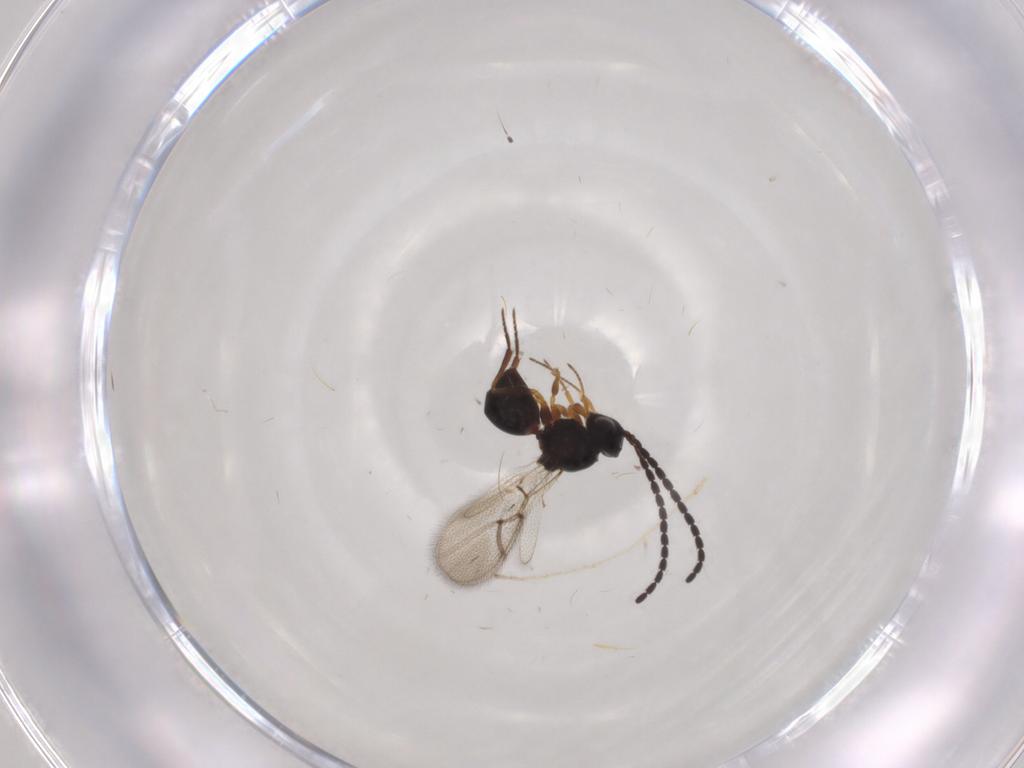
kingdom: Animalia
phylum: Arthropoda
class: Insecta
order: Hymenoptera
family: Figitidae
